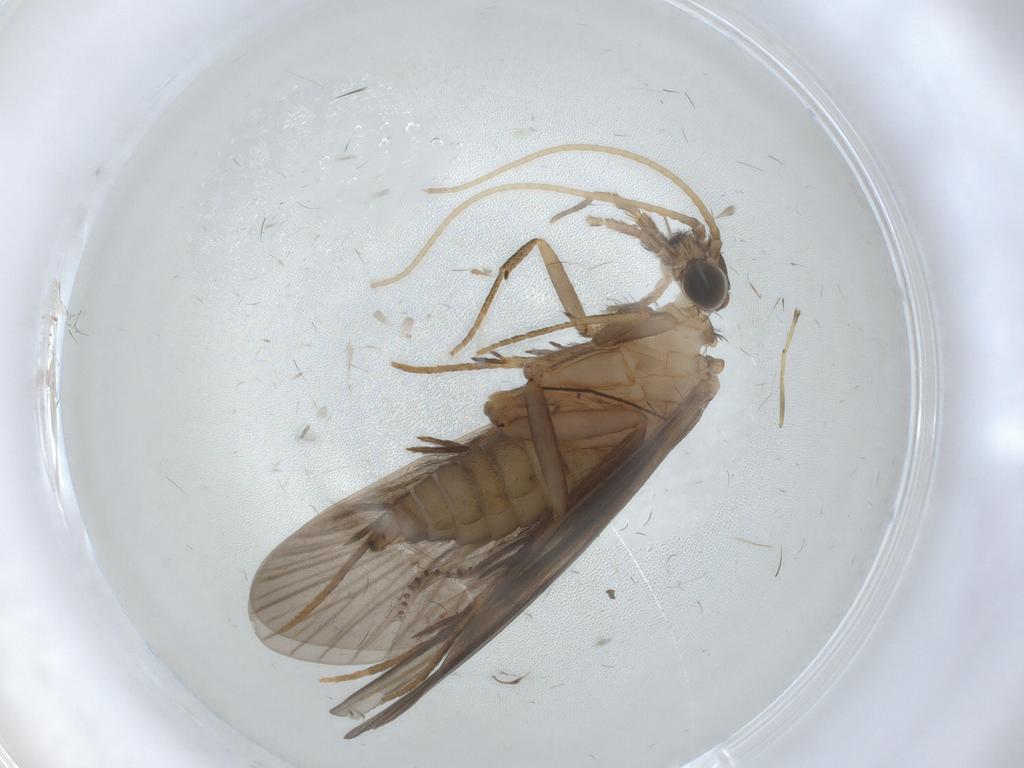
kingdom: Animalia
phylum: Arthropoda
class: Insecta
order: Trichoptera
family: Philopotamidae
